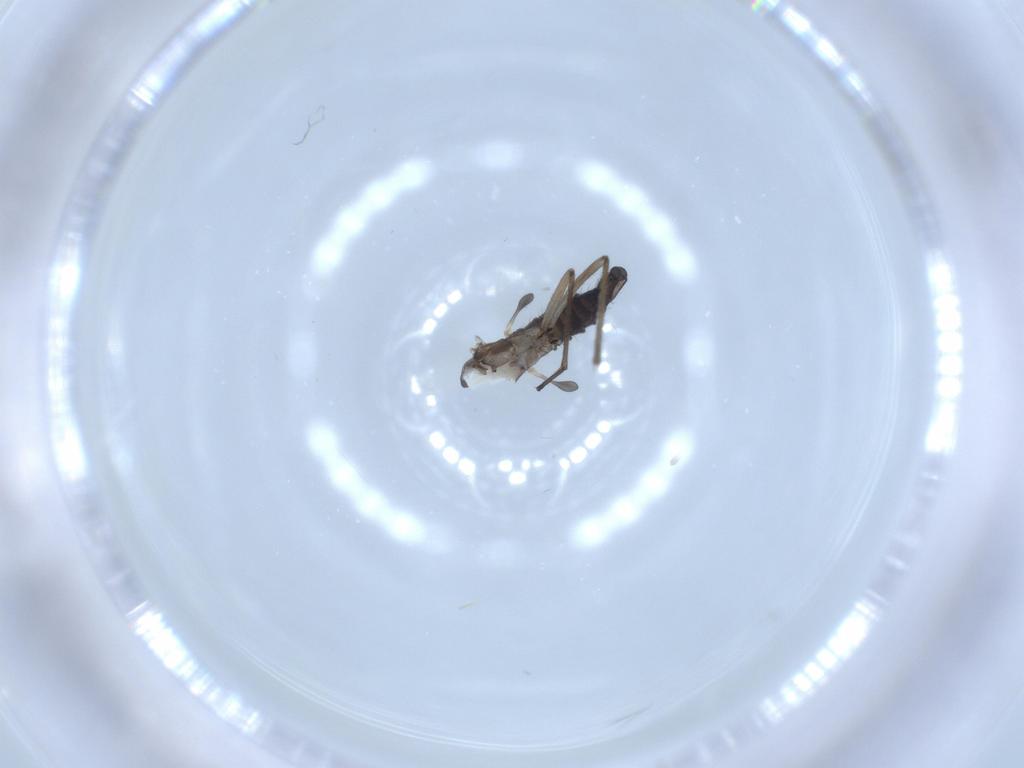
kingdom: Animalia
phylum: Arthropoda
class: Insecta
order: Diptera
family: Sciaridae
